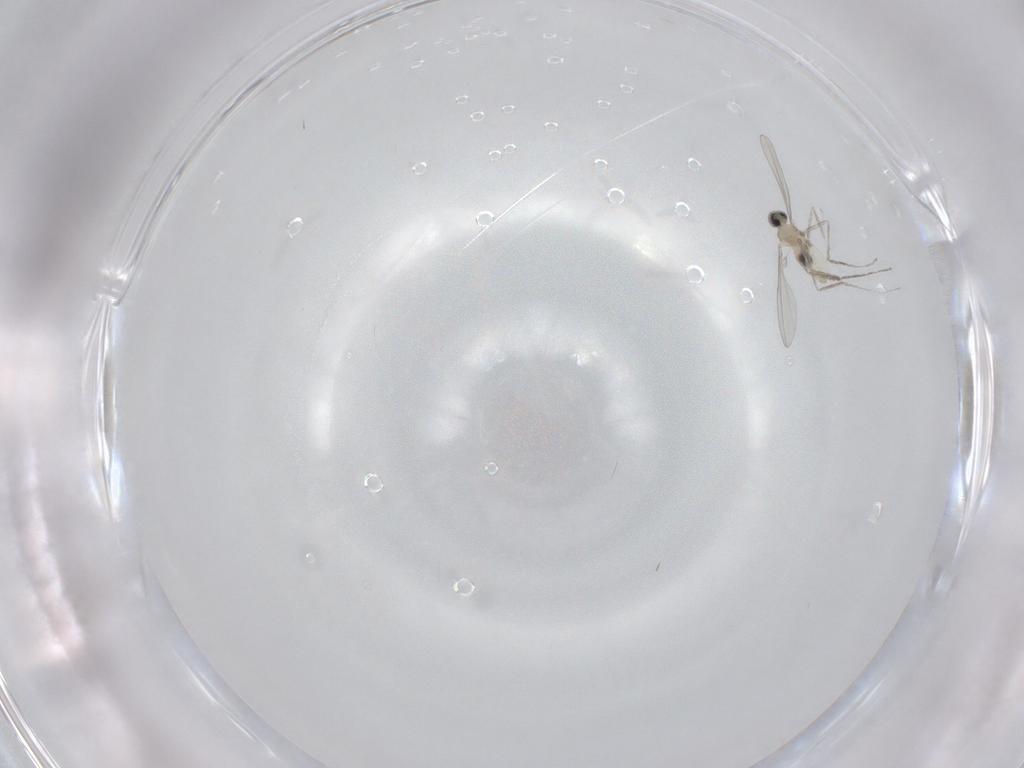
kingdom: Animalia
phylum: Arthropoda
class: Insecta
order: Diptera
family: Cecidomyiidae
